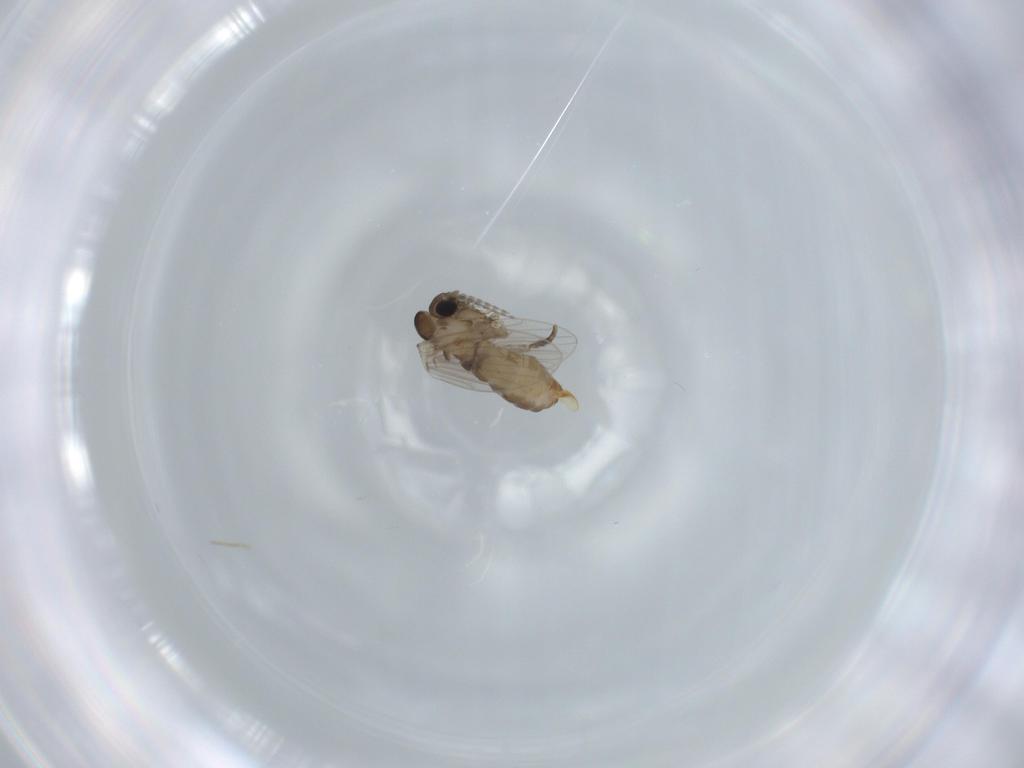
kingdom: Animalia
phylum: Arthropoda
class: Insecta
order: Diptera
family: Psychodidae
